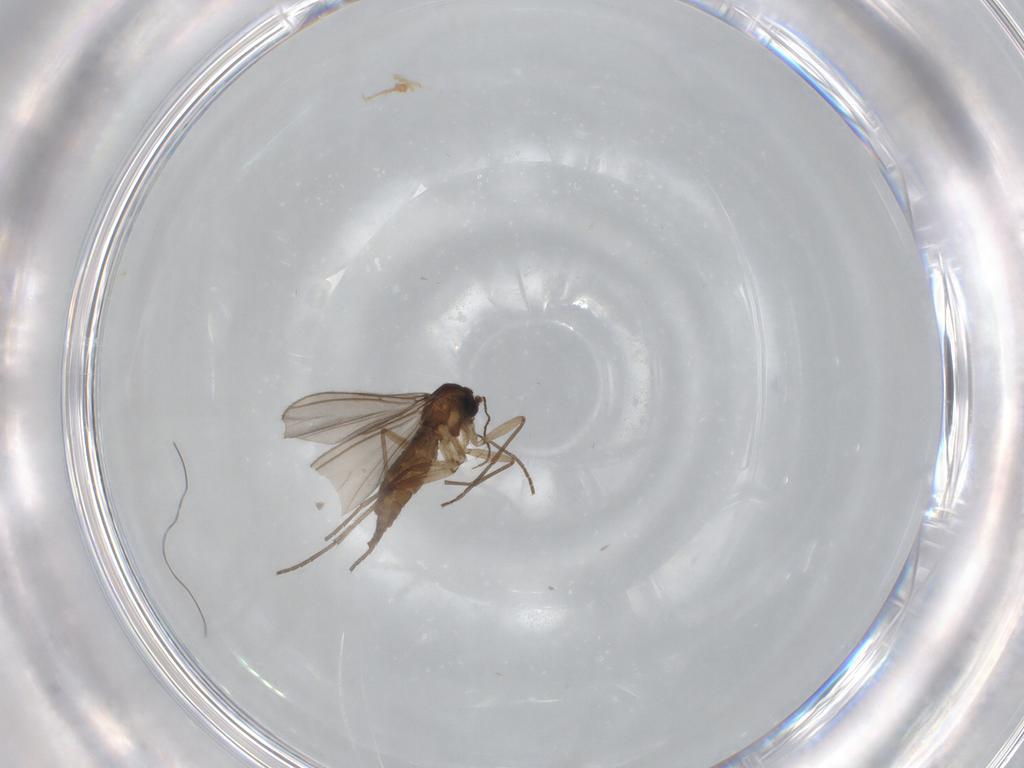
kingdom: Animalia
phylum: Arthropoda
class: Insecta
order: Diptera
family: Sciaridae
